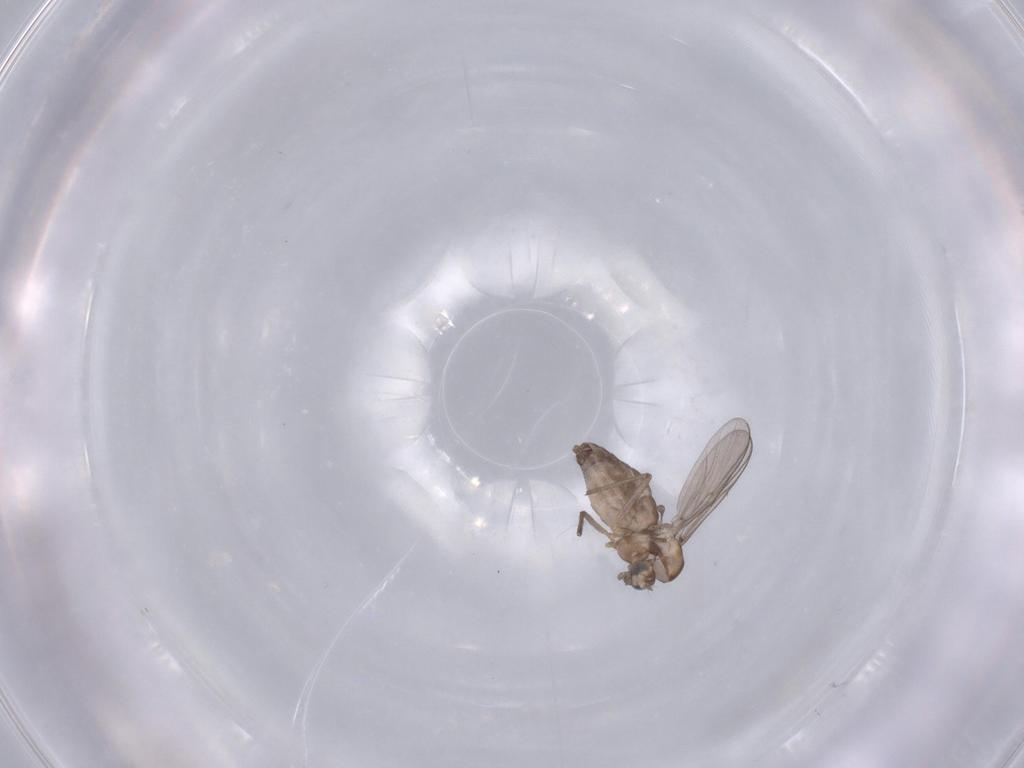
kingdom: Animalia
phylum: Arthropoda
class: Insecta
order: Diptera
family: Chironomidae
